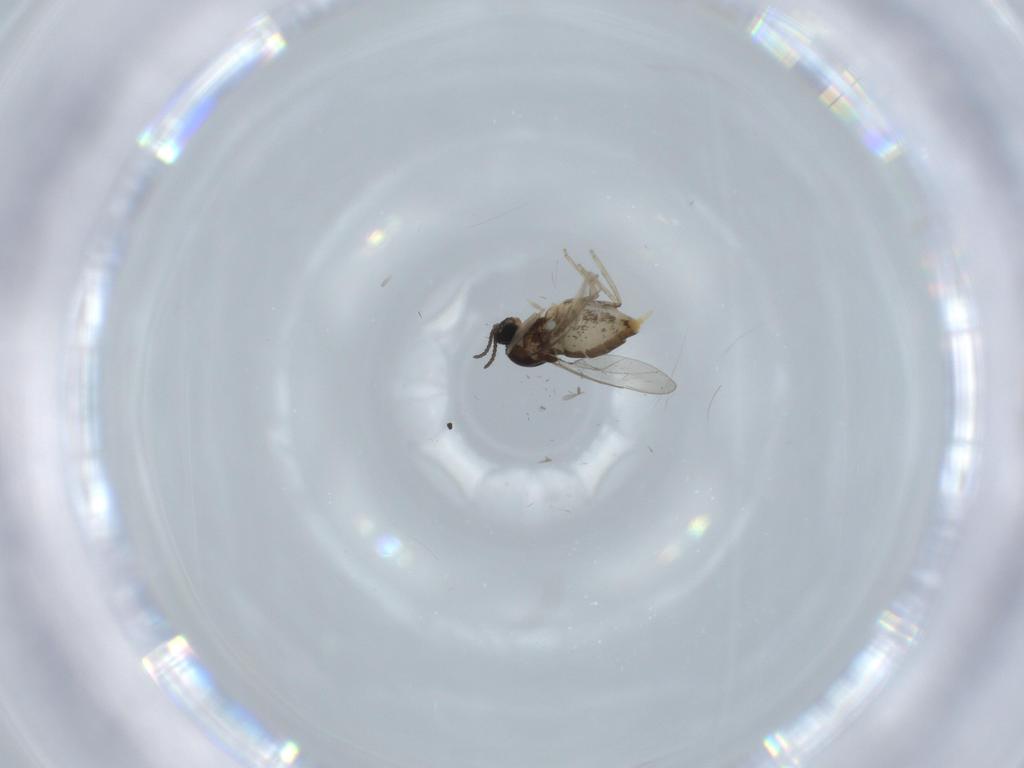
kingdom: Animalia
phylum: Arthropoda
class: Insecta
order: Diptera
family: Cecidomyiidae
